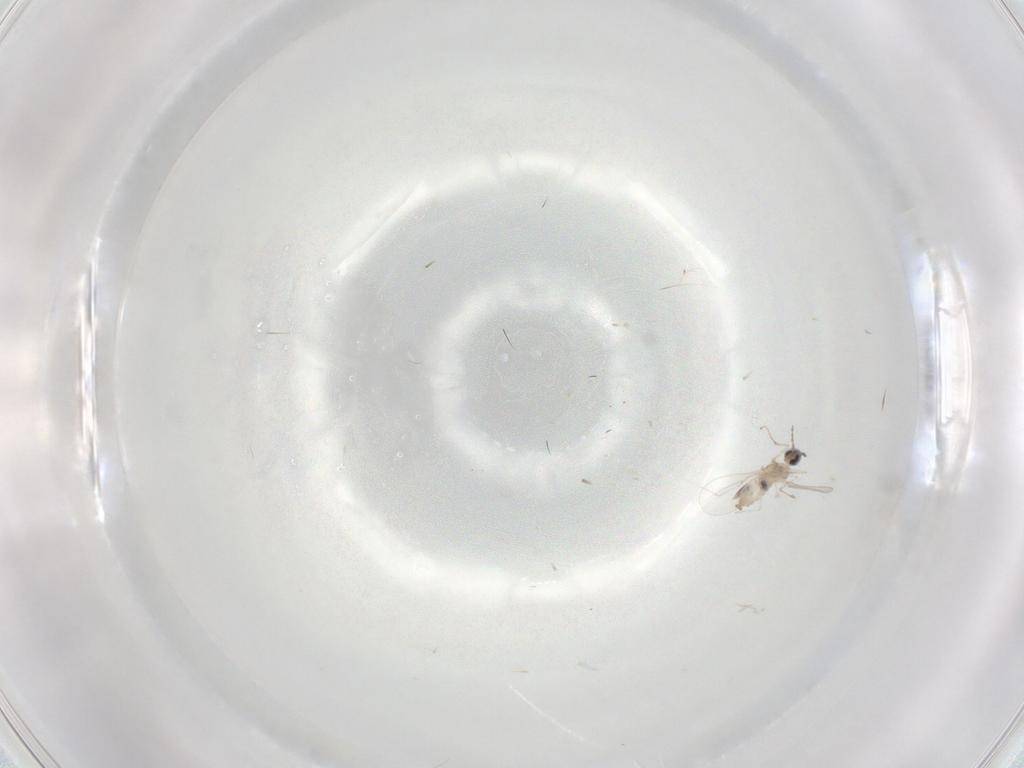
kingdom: Animalia
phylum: Arthropoda
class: Insecta
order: Diptera
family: Cecidomyiidae
